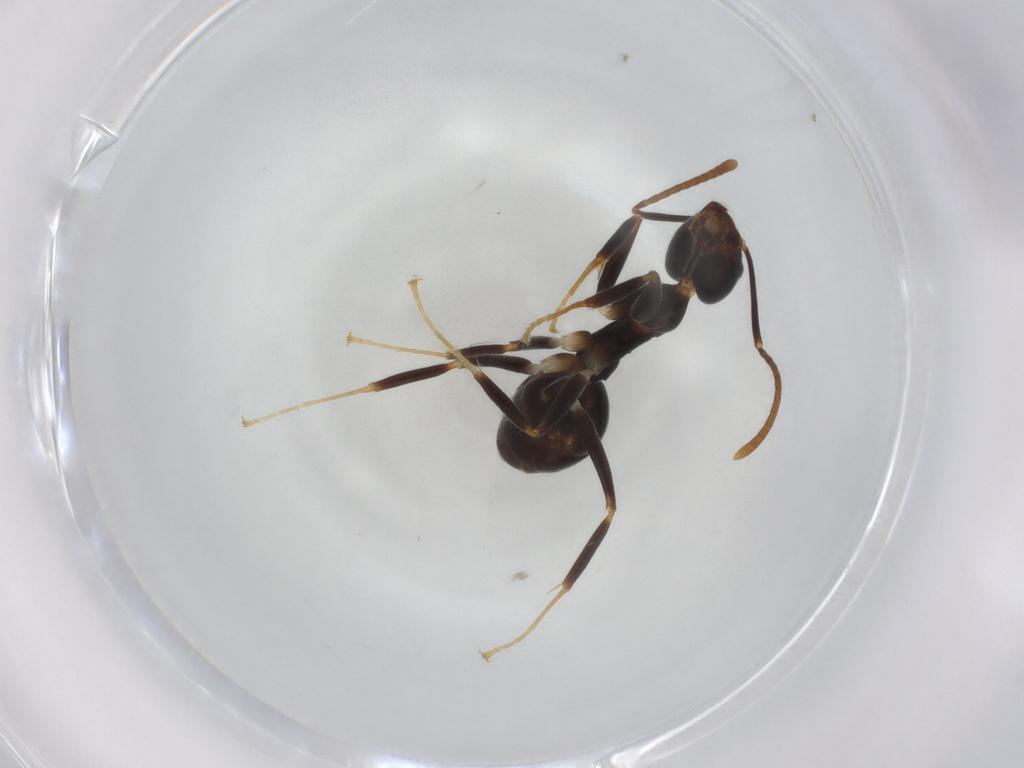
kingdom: Animalia
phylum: Arthropoda
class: Insecta
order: Hymenoptera
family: Formicidae
